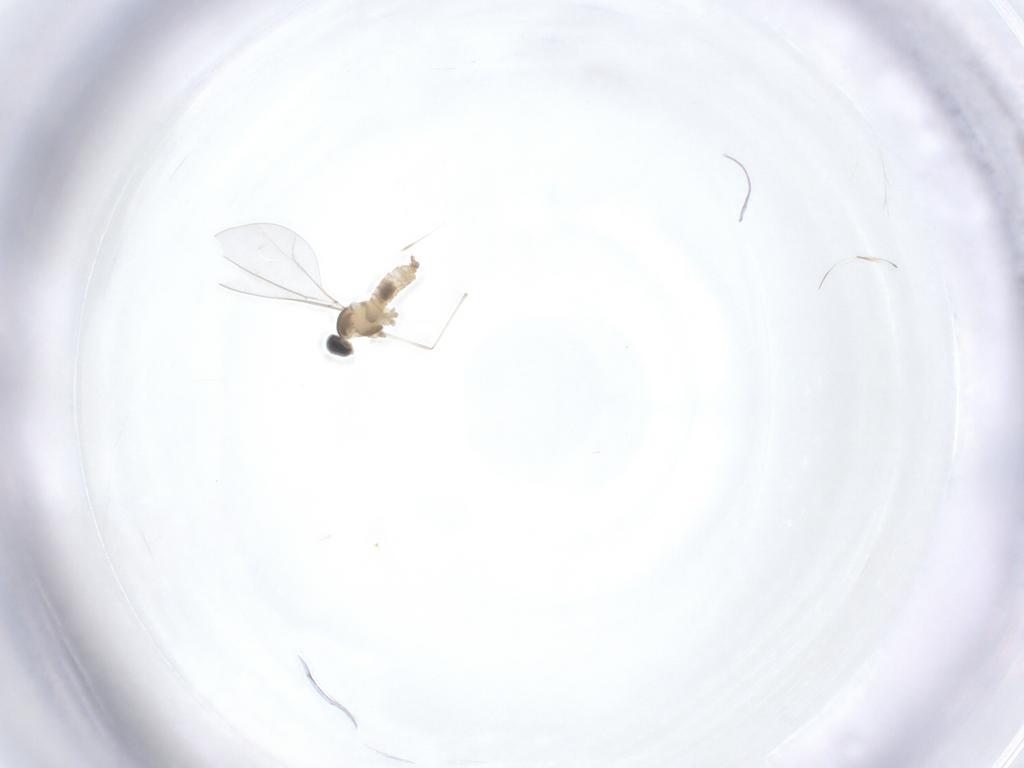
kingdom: Animalia
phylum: Arthropoda
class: Insecta
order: Diptera
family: Cecidomyiidae
